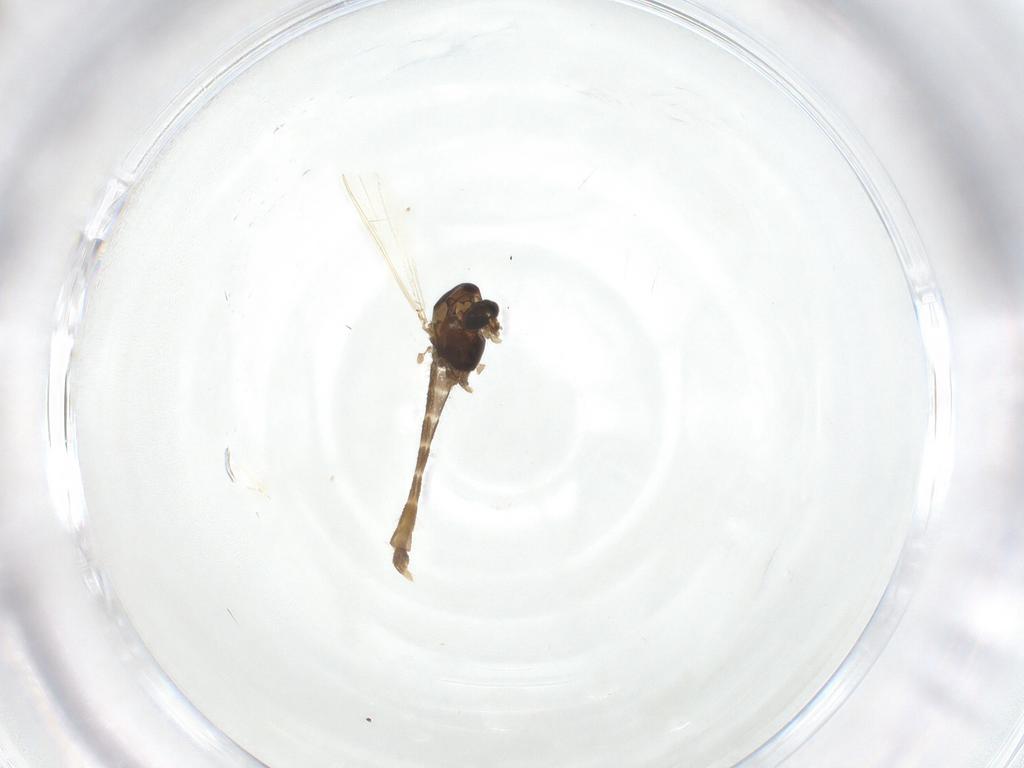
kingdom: Animalia
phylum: Arthropoda
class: Insecta
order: Diptera
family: Chironomidae
